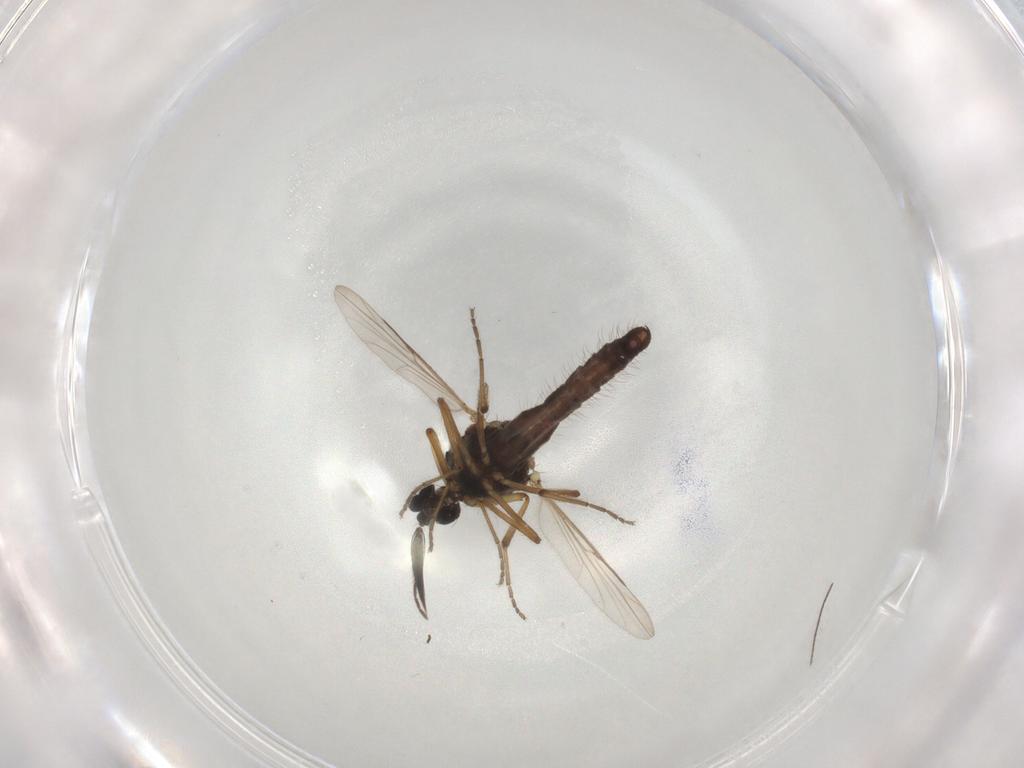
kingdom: Animalia
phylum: Arthropoda
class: Insecta
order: Diptera
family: Ceratopogonidae
